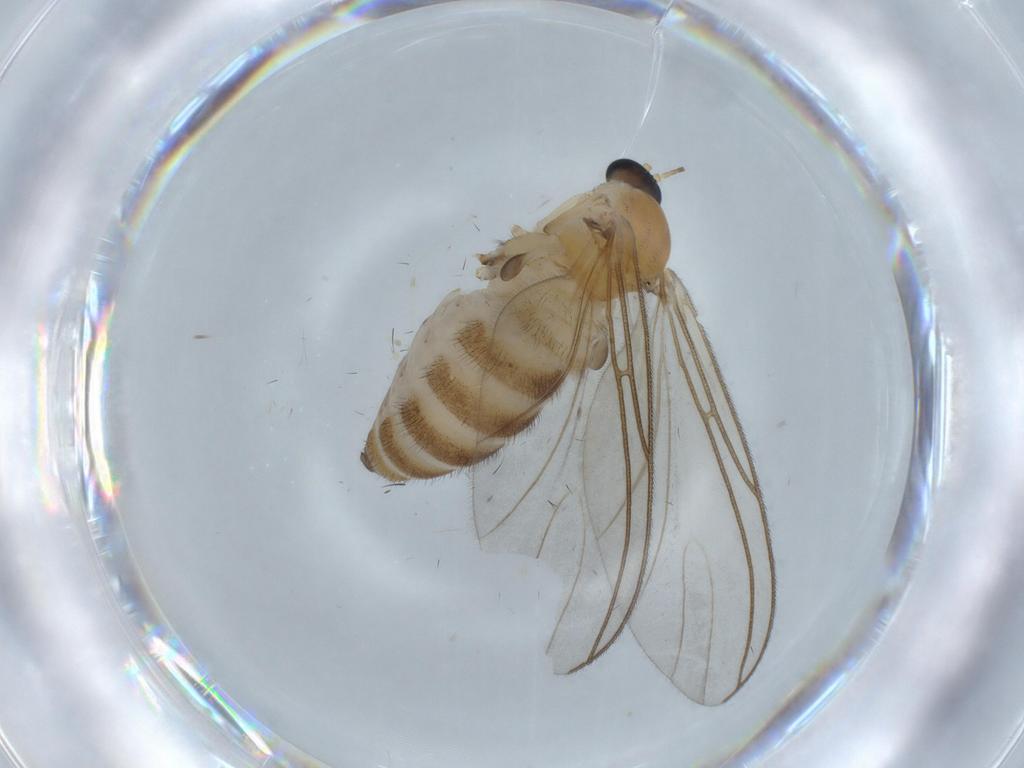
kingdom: Animalia
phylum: Arthropoda
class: Insecta
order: Diptera
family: Sciaridae
